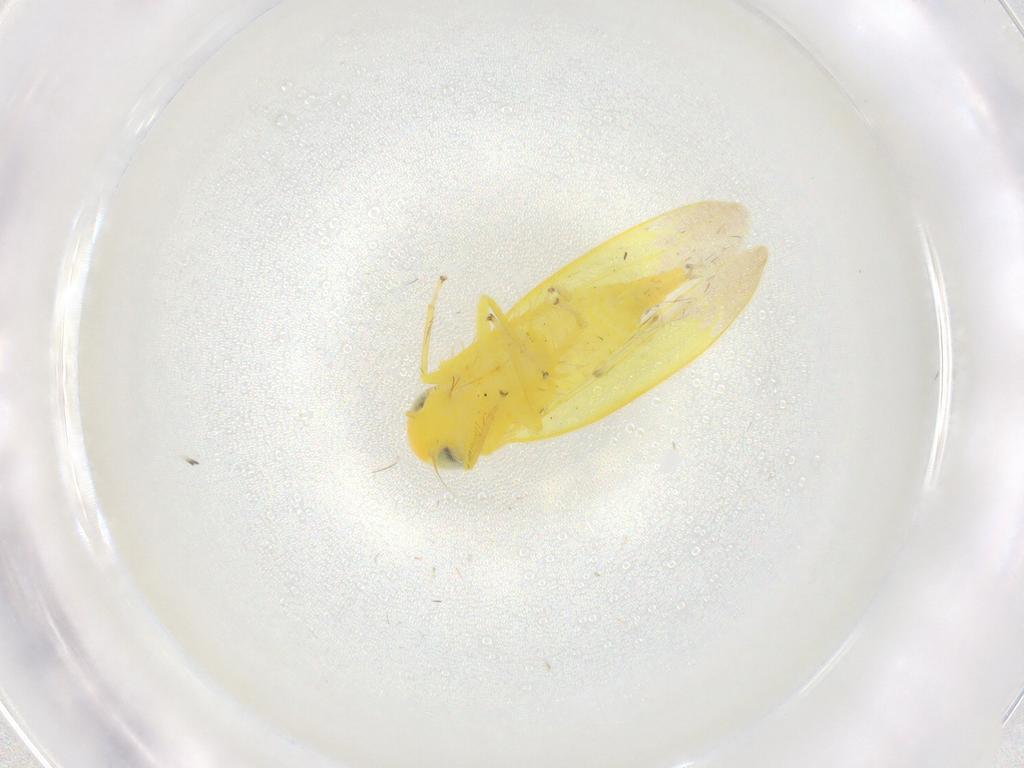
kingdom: Animalia
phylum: Arthropoda
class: Insecta
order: Hemiptera
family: Cicadellidae
